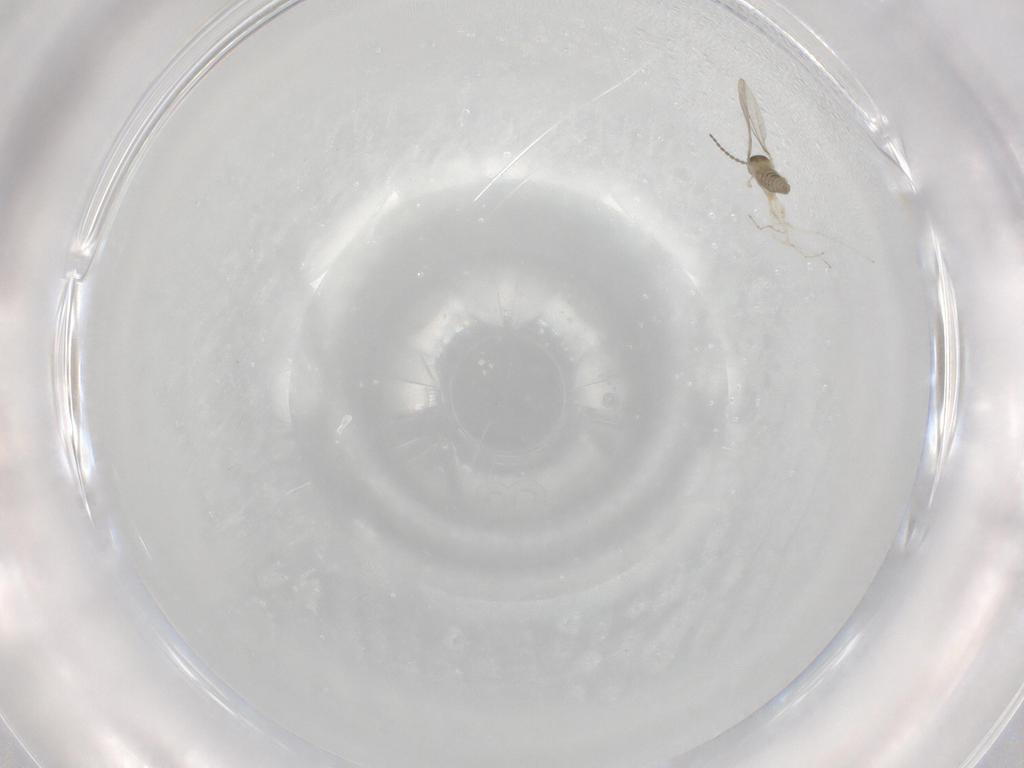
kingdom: Animalia
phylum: Arthropoda
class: Insecta
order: Diptera
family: Cecidomyiidae
